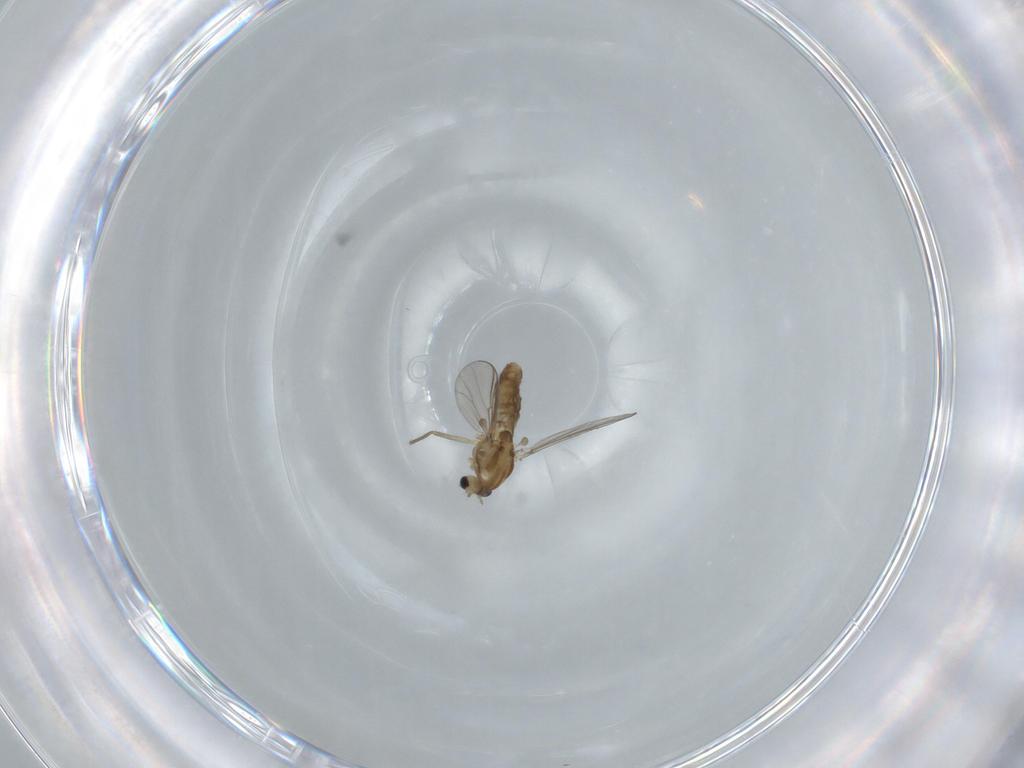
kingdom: Animalia
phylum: Arthropoda
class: Insecta
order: Diptera
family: Chironomidae
